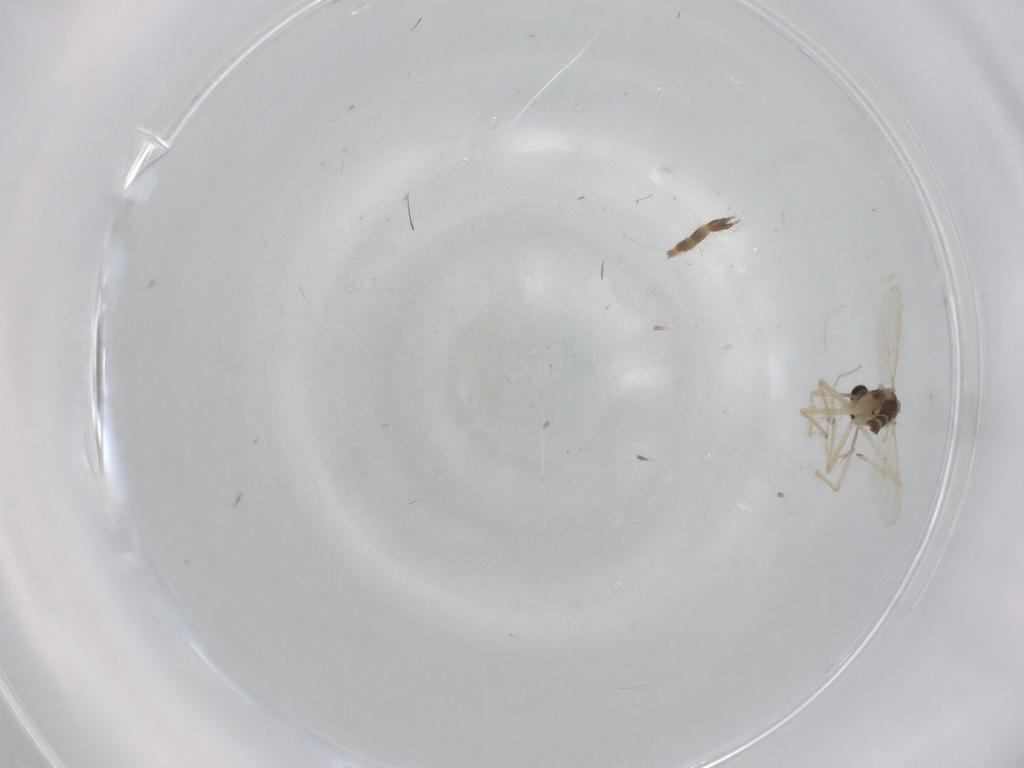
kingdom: Animalia
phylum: Arthropoda
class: Insecta
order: Diptera
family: Chironomidae
